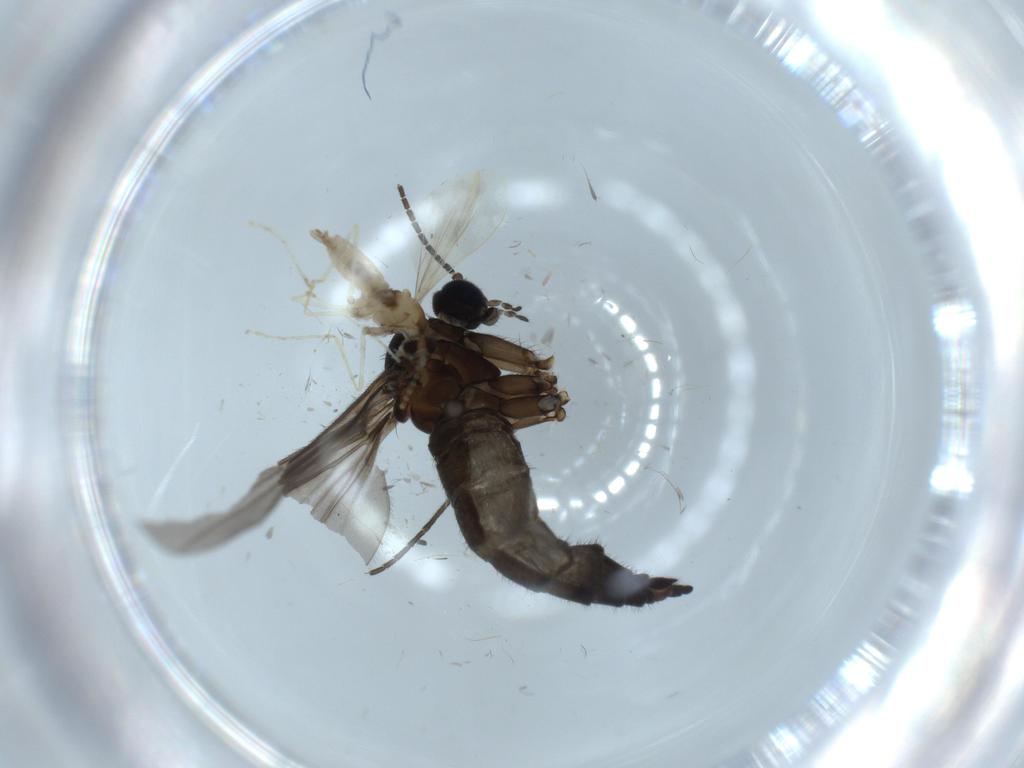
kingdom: Animalia
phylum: Arthropoda
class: Insecta
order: Diptera
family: Sciaridae
